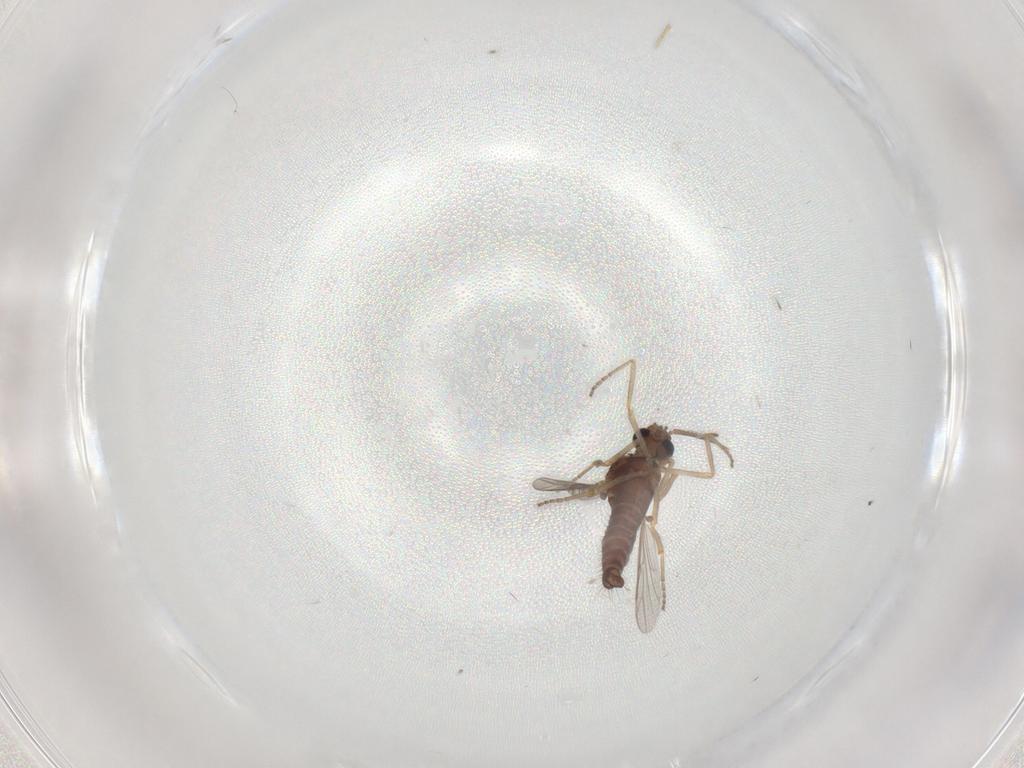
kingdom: Animalia
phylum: Arthropoda
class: Insecta
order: Diptera
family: Ceratopogonidae
